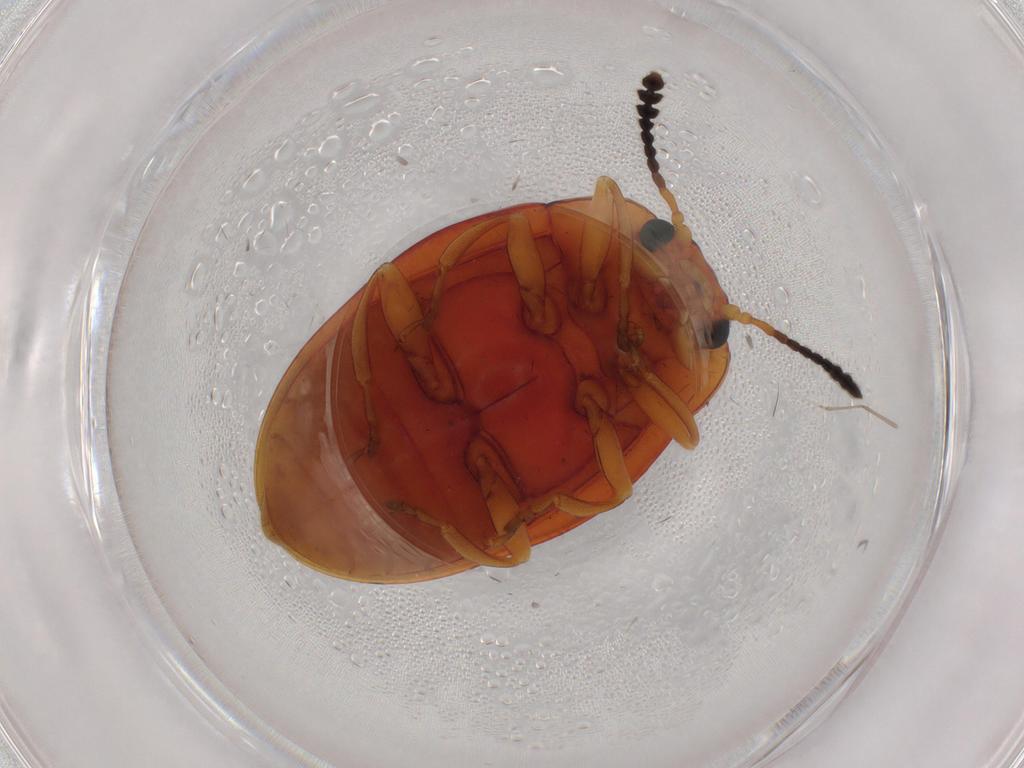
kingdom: Animalia
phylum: Arthropoda
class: Insecta
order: Coleoptera
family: Erotylidae
